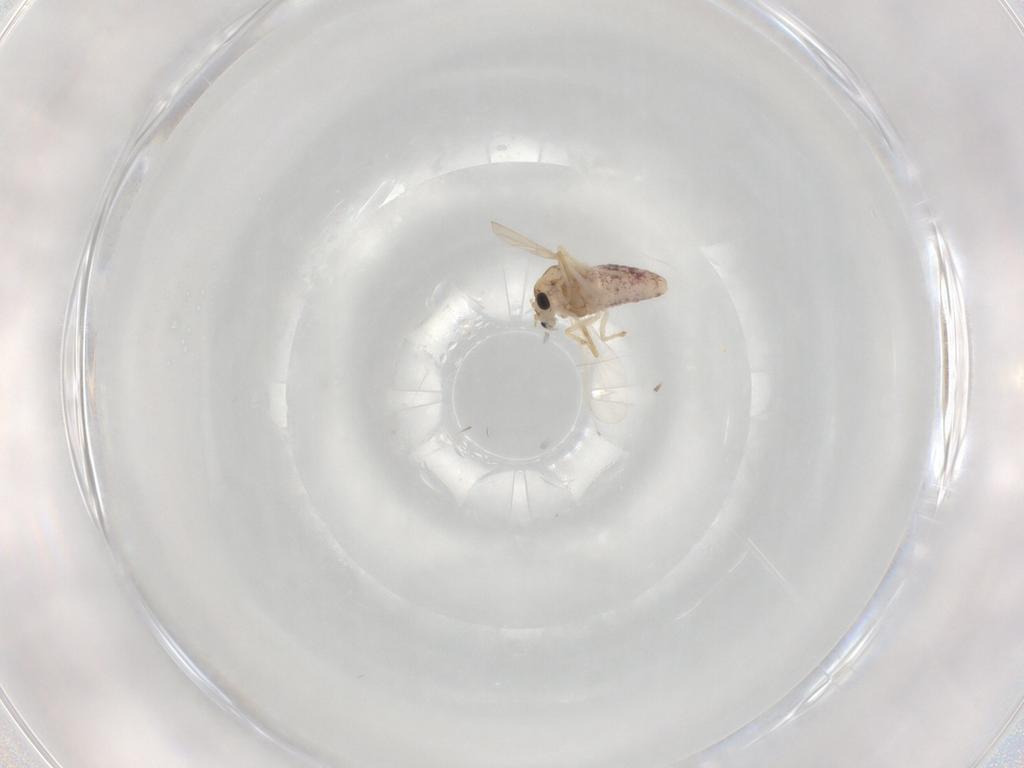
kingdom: Animalia
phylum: Arthropoda
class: Insecta
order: Diptera
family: Chironomidae
